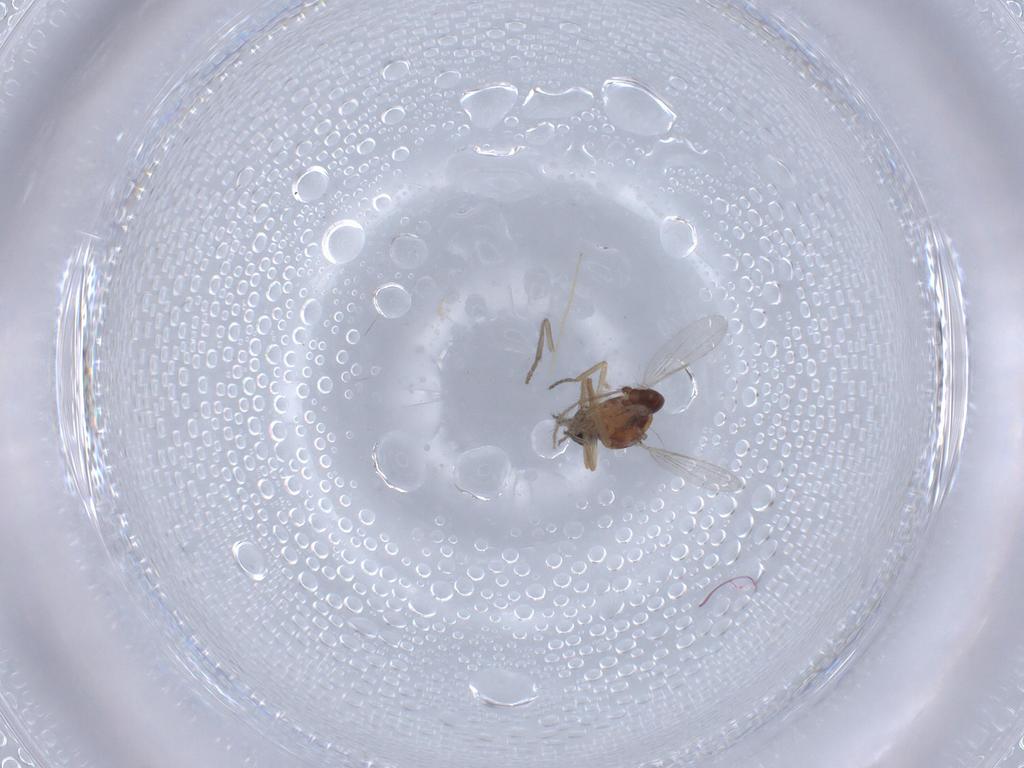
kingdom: Animalia
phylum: Arthropoda
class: Insecta
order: Diptera
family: Ceratopogonidae
